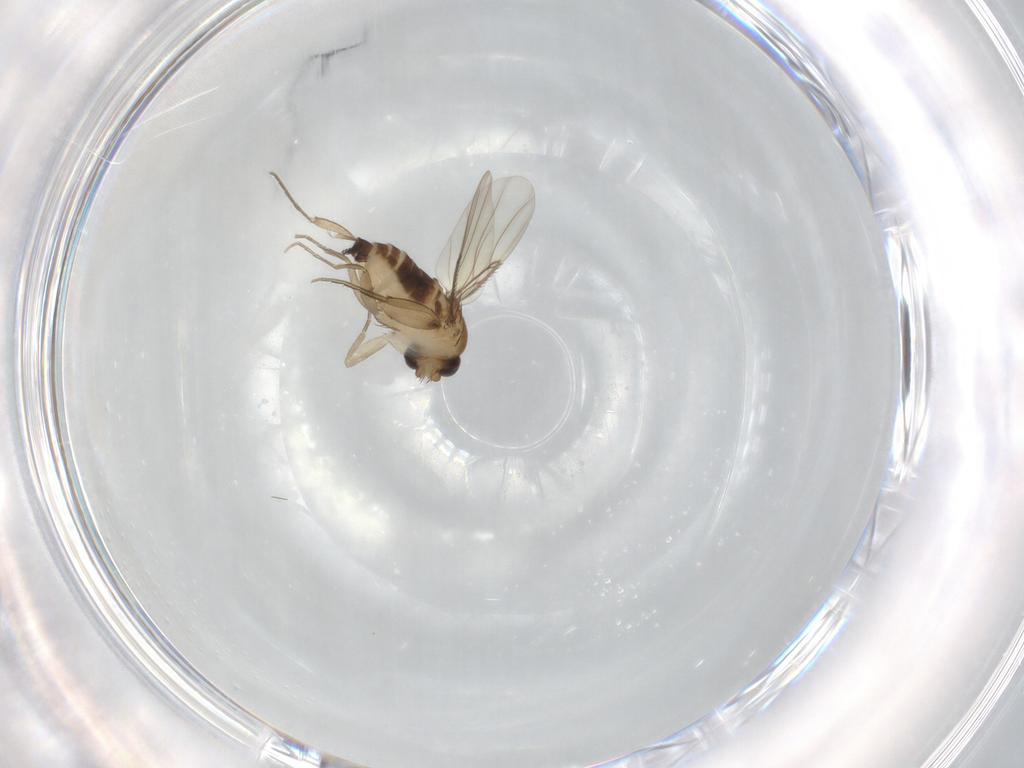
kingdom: Animalia
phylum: Arthropoda
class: Insecta
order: Diptera
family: Phoridae
